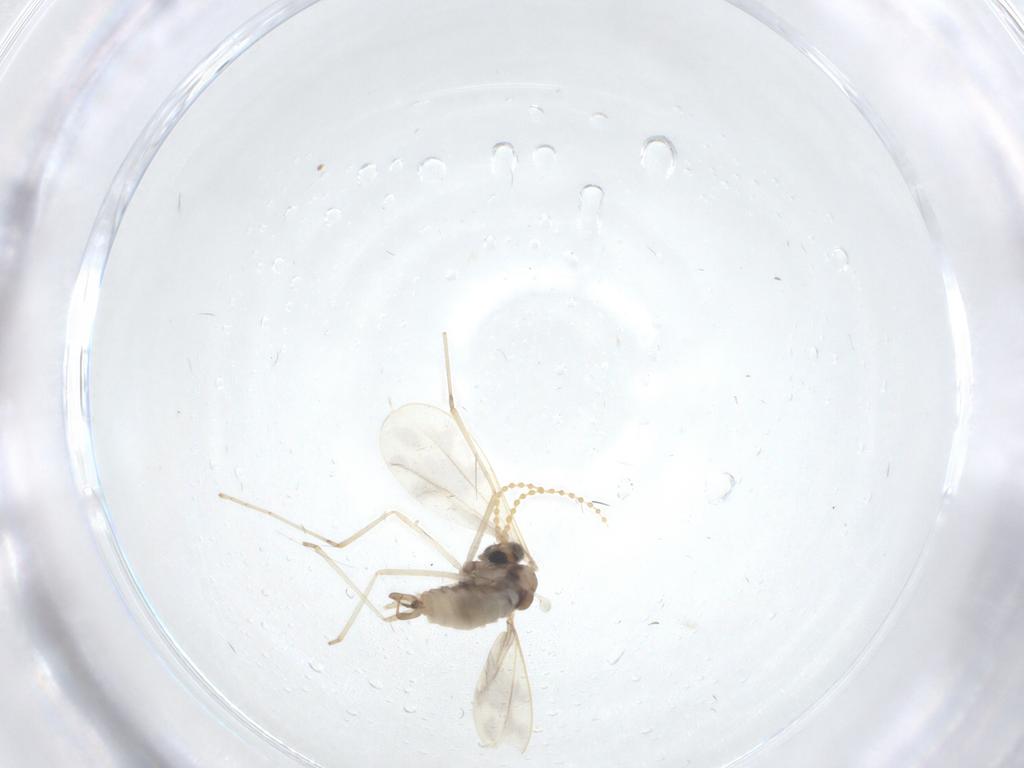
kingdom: Animalia
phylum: Arthropoda
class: Insecta
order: Diptera
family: Cecidomyiidae
